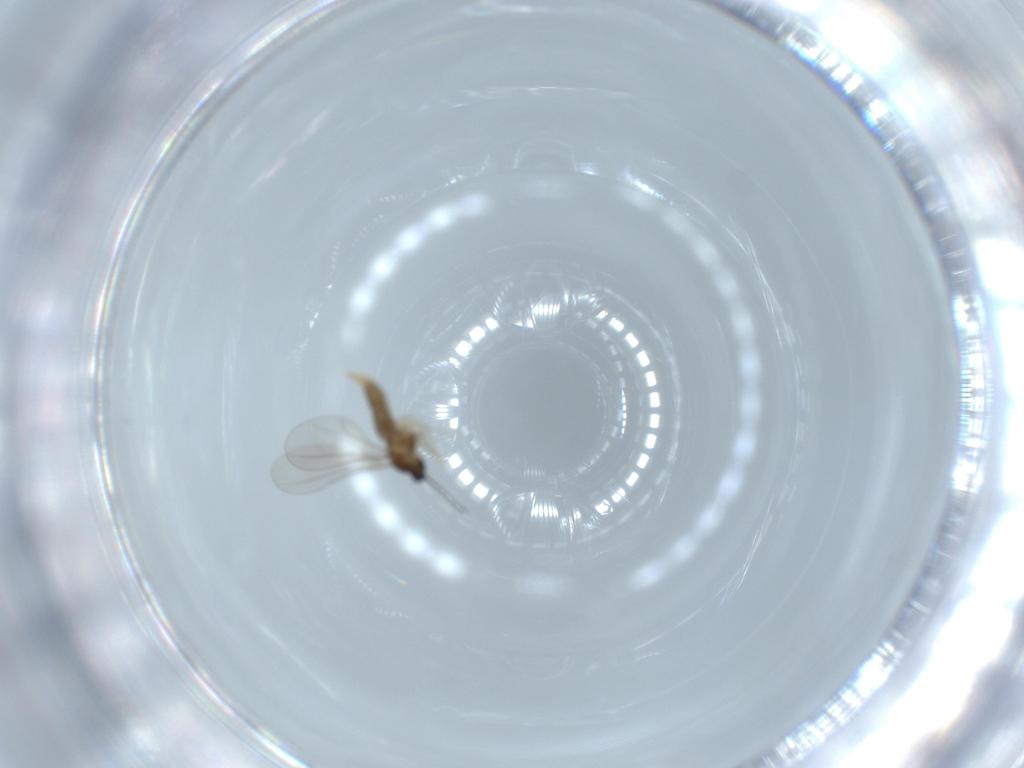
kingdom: Animalia
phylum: Arthropoda
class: Insecta
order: Diptera
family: Cecidomyiidae
